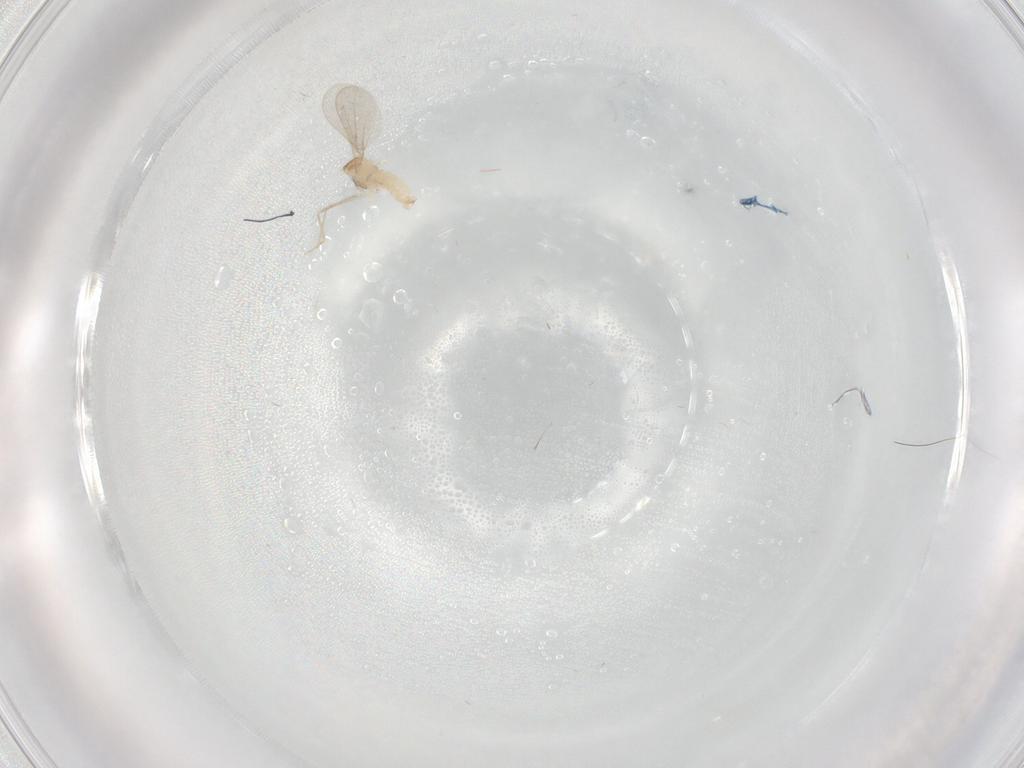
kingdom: Animalia
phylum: Arthropoda
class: Insecta
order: Diptera
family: Cecidomyiidae
